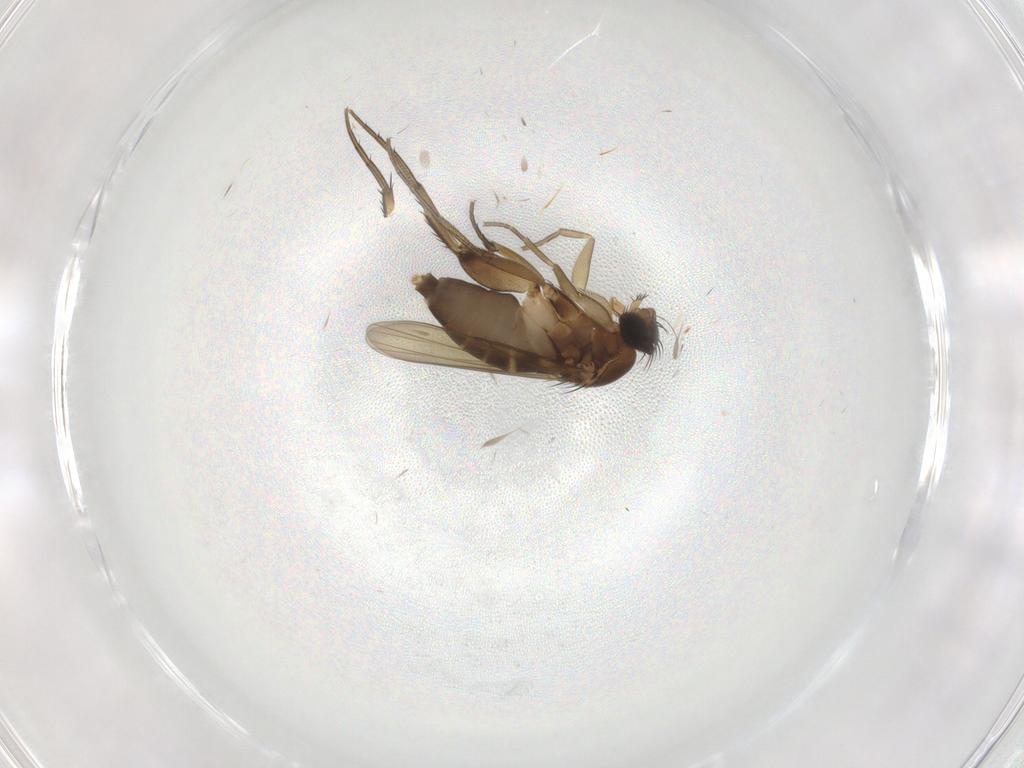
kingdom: Animalia
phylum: Arthropoda
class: Insecta
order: Diptera
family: Phoridae
